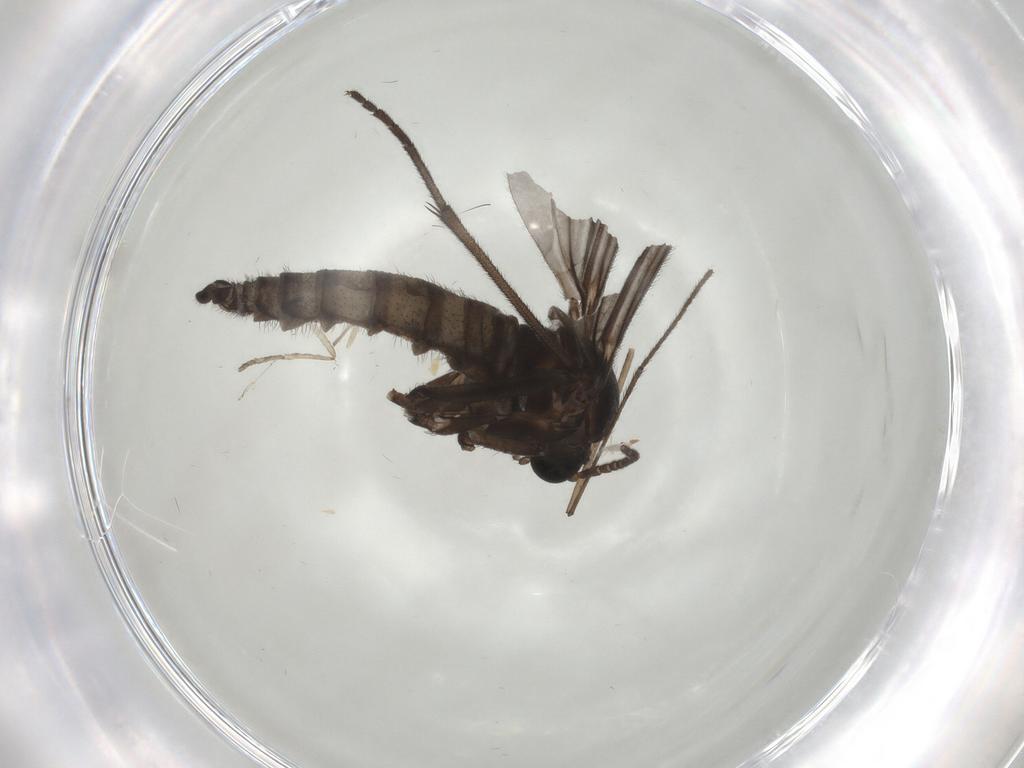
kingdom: Animalia
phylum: Arthropoda
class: Insecta
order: Diptera
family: Sciaridae
